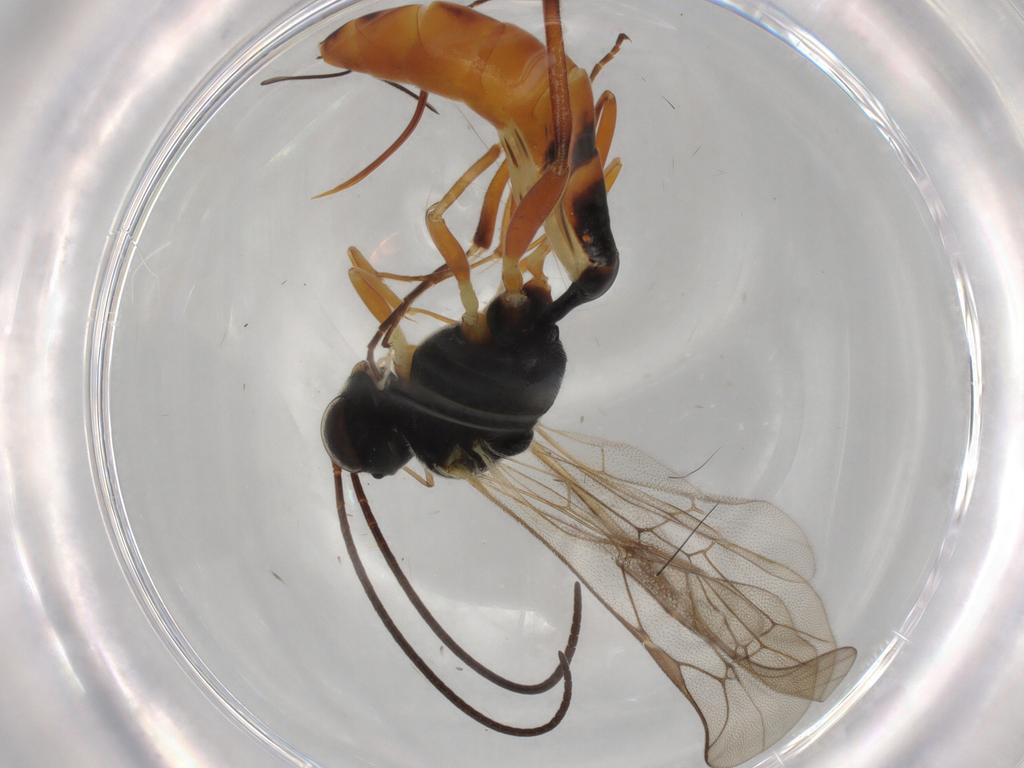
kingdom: Animalia
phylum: Arthropoda
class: Insecta
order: Hymenoptera
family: Ichneumonidae
